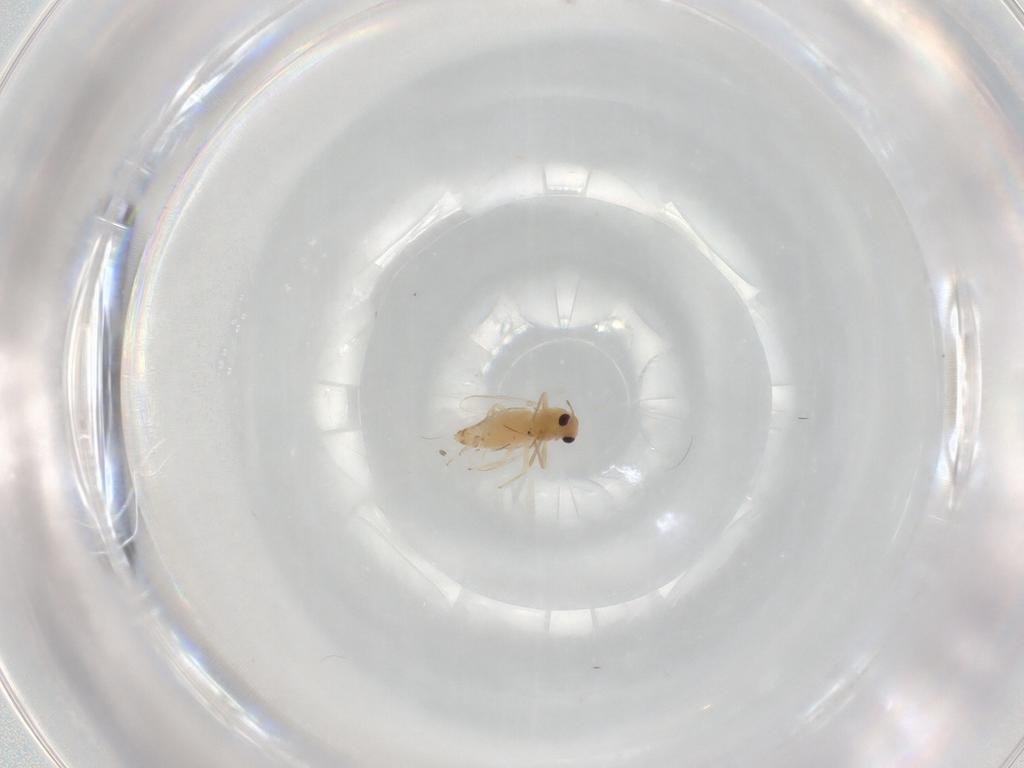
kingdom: Animalia
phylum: Arthropoda
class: Insecta
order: Diptera
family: Chironomidae
